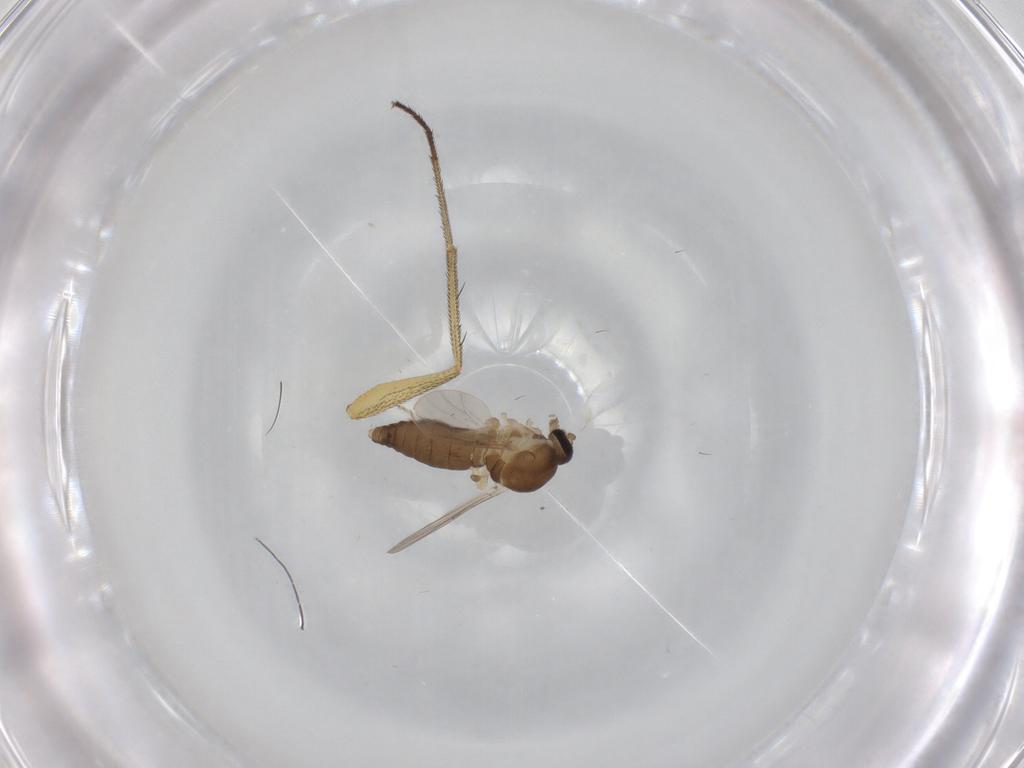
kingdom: Animalia
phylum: Arthropoda
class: Insecta
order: Diptera
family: Ceratopogonidae
